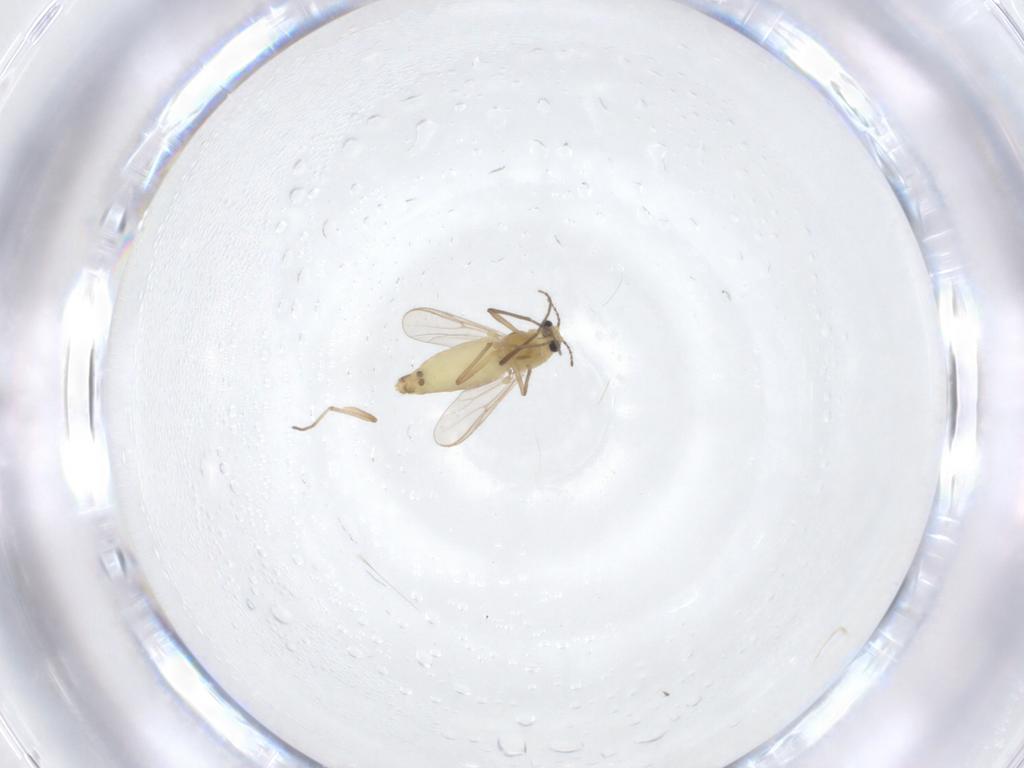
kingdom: Animalia
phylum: Arthropoda
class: Insecta
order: Diptera
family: Chironomidae
